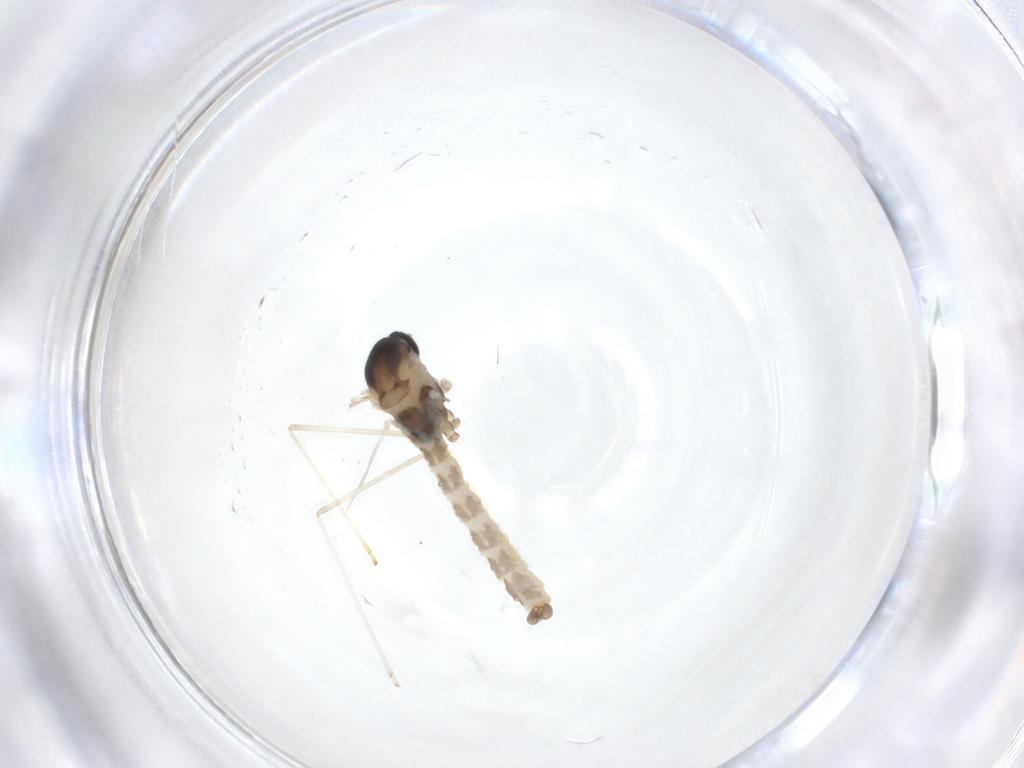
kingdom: Animalia
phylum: Arthropoda
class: Insecta
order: Diptera
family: Cecidomyiidae
